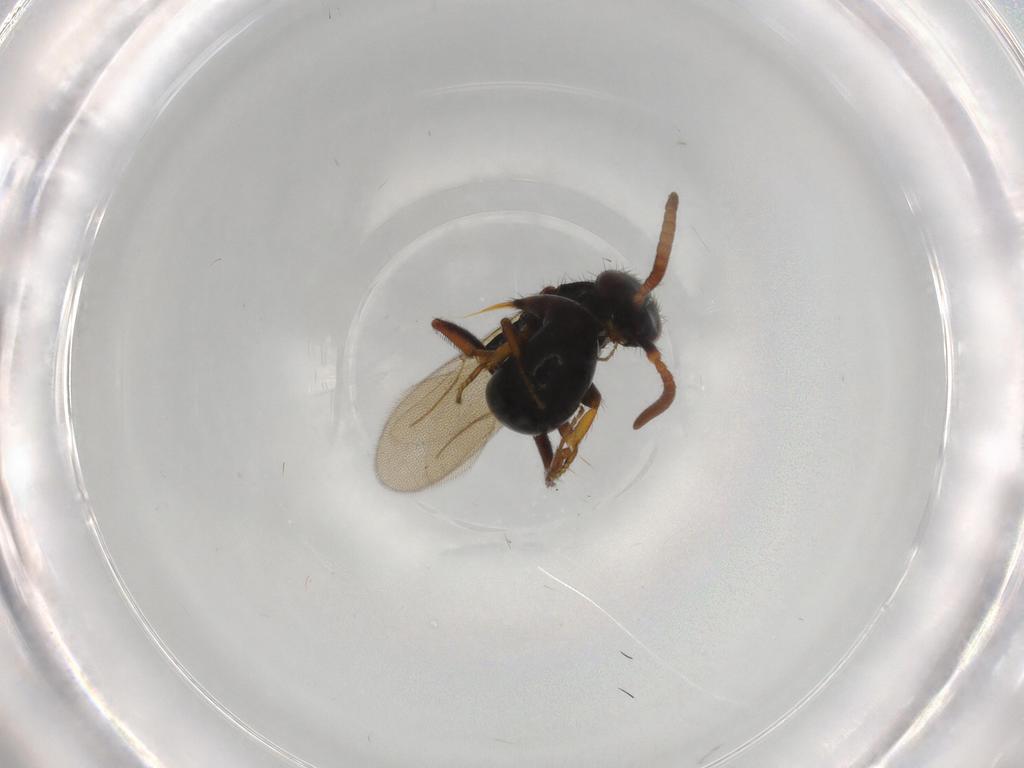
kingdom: Animalia
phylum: Arthropoda
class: Insecta
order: Hymenoptera
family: Bethylidae
